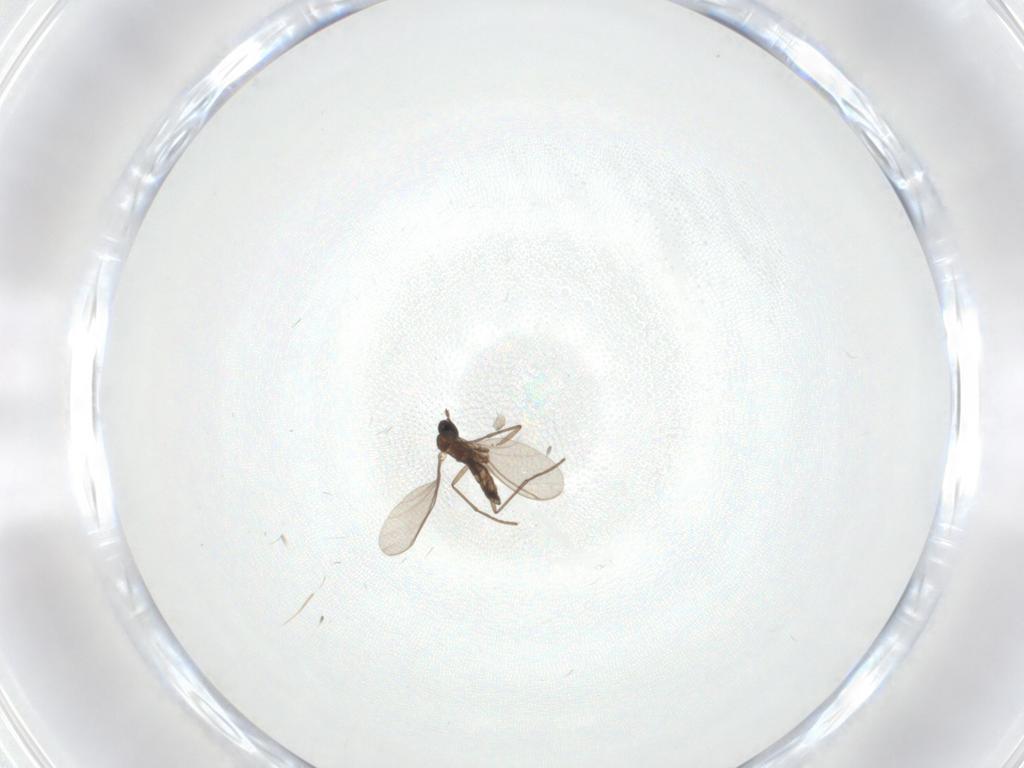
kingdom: Animalia
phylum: Arthropoda
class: Insecta
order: Diptera
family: Ceratopogonidae
